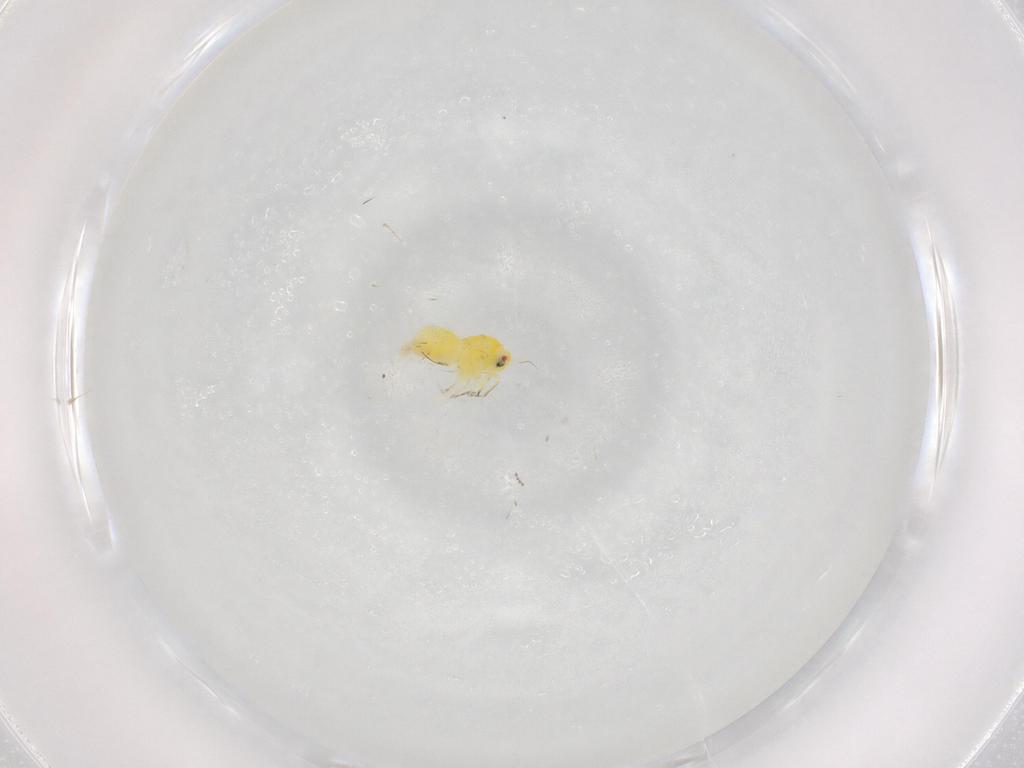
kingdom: Animalia
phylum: Arthropoda
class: Insecta
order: Hemiptera
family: Aleyrodidae
